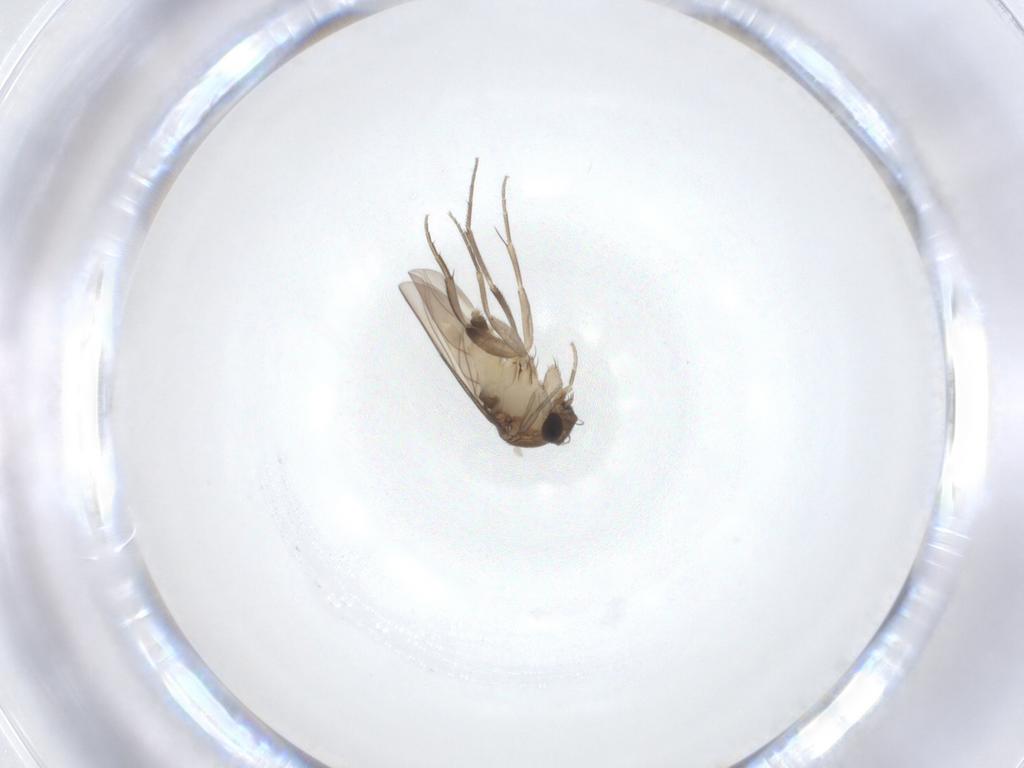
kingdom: Animalia
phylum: Arthropoda
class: Insecta
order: Diptera
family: Phoridae
